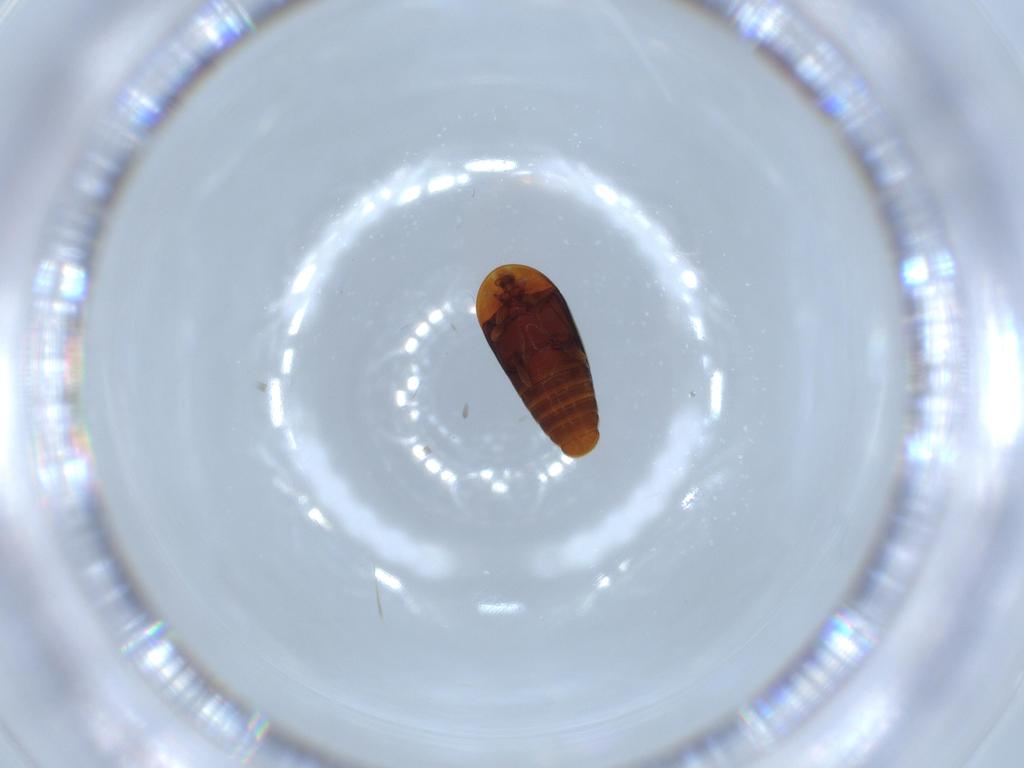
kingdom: Animalia
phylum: Arthropoda
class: Insecta
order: Coleoptera
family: Corylophidae
